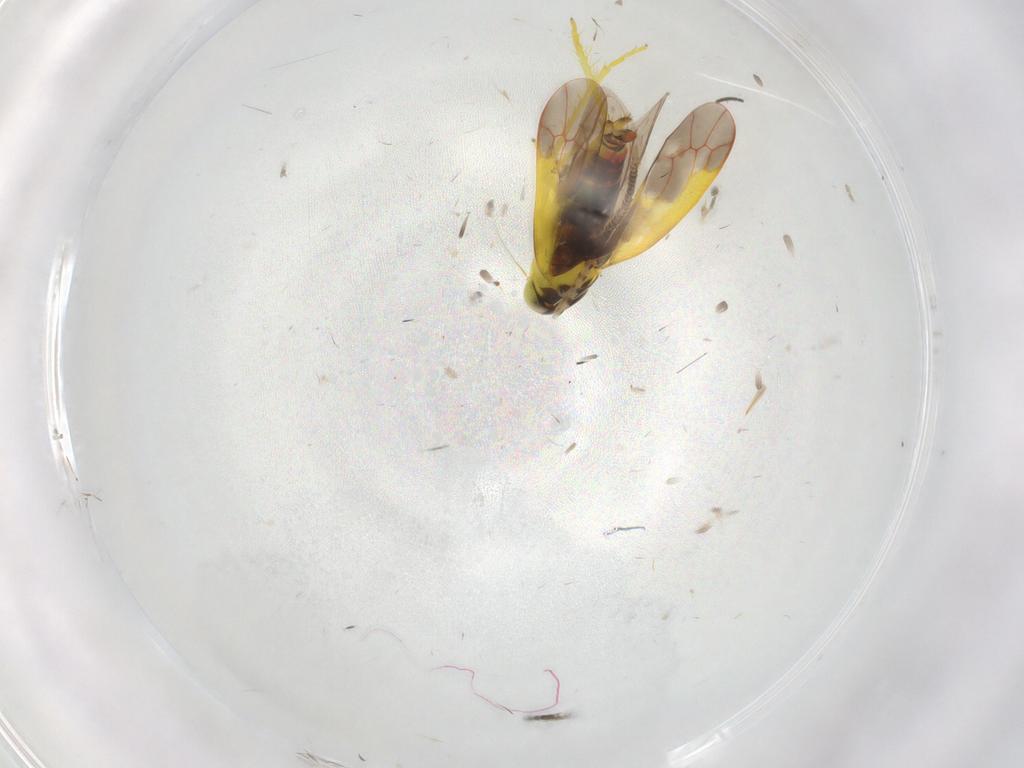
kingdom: Animalia
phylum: Arthropoda
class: Insecta
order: Hemiptera
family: Cicadellidae
